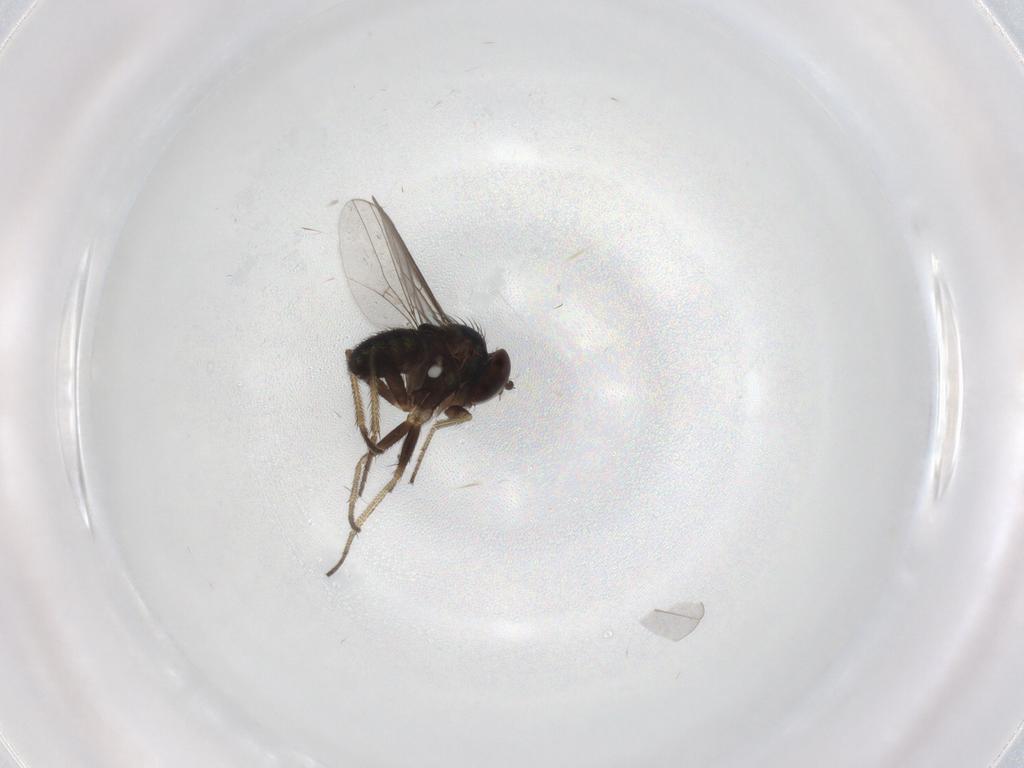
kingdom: Animalia
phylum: Arthropoda
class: Insecta
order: Diptera
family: Limoniidae
